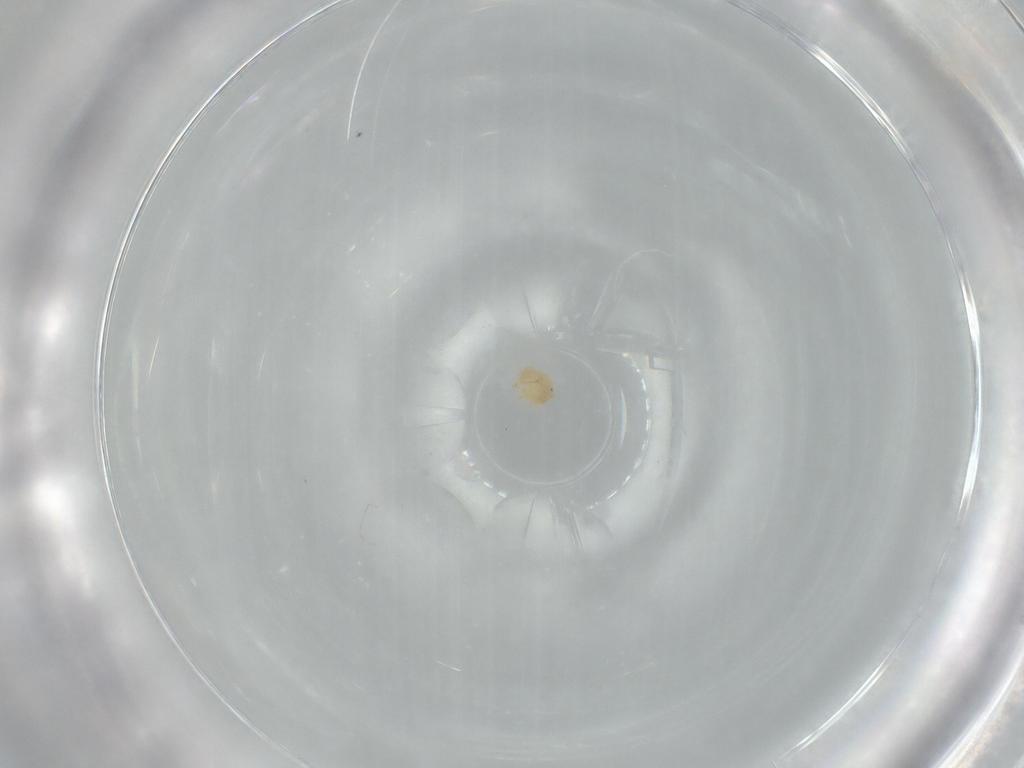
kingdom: Animalia
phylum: Arthropoda
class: Arachnida
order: Trombidiformes
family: Sperchontidae
